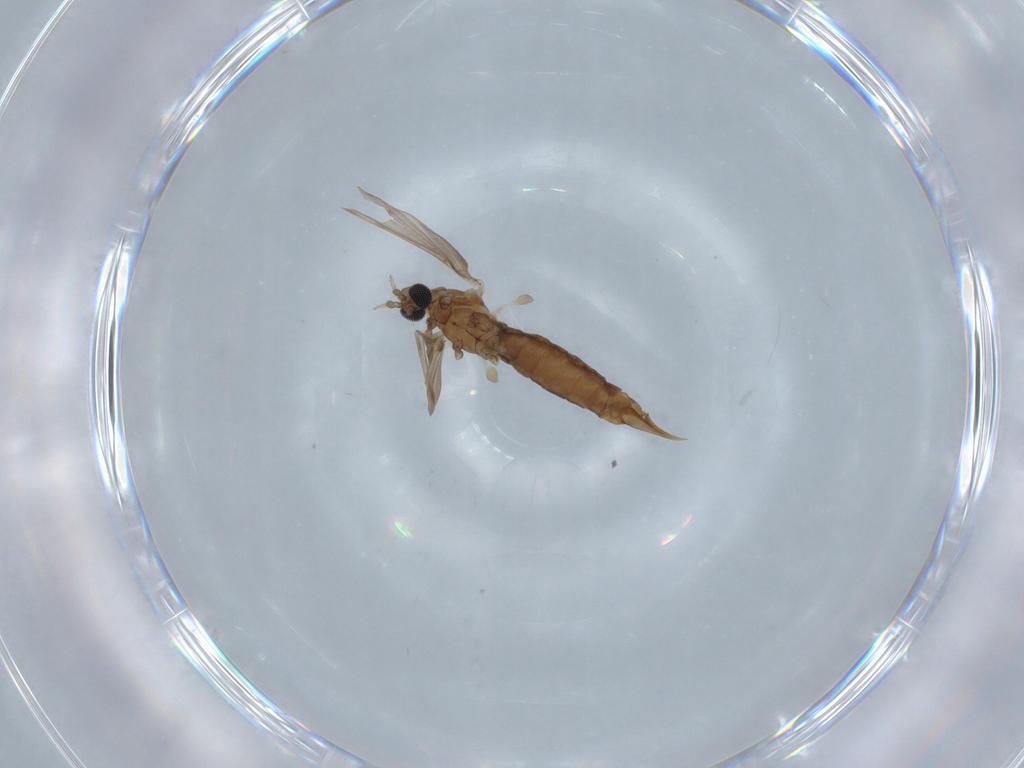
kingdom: Animalia
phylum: Arthropoda
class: Insecta
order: Diptera
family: Limoniidae
